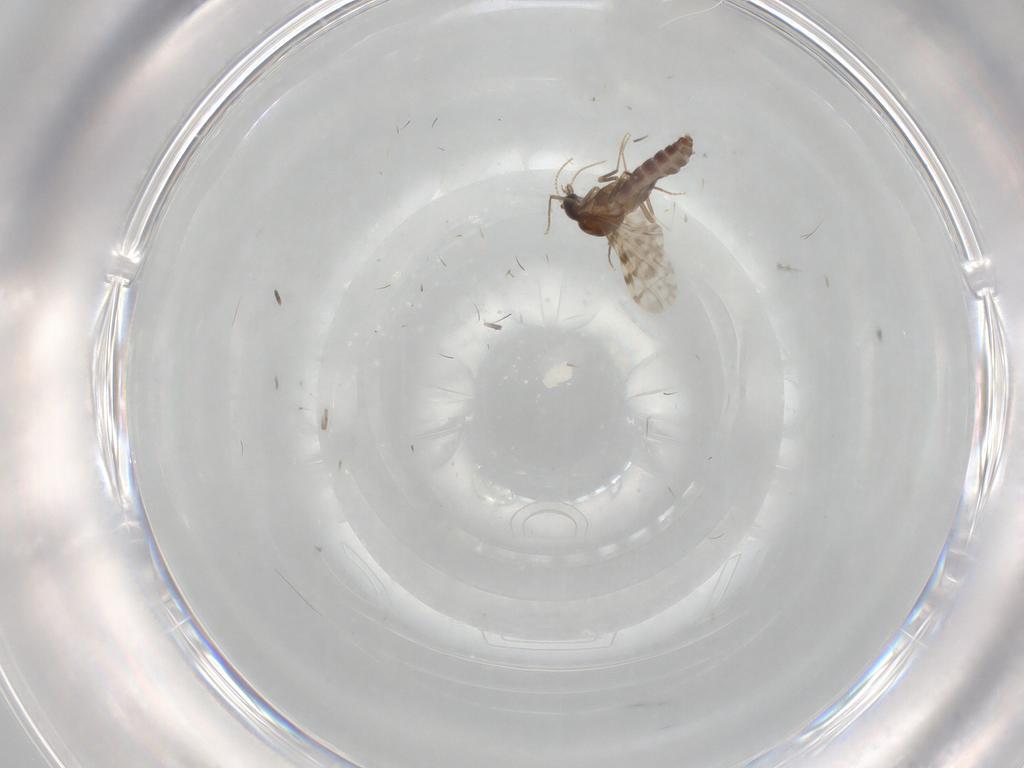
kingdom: Animalia
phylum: Arthropoda
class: Insecta
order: Diptera
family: Ceratopogonidae
